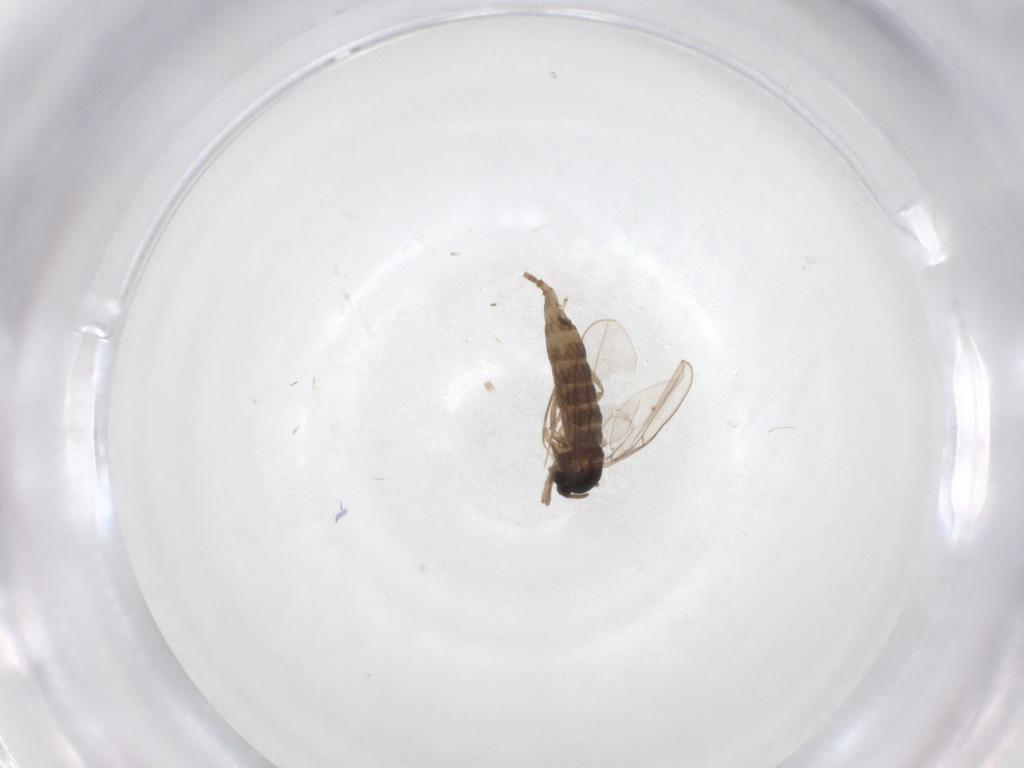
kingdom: Animalia
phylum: Arthropoda
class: Insecta
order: Diptera
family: Cecidomyiidae
